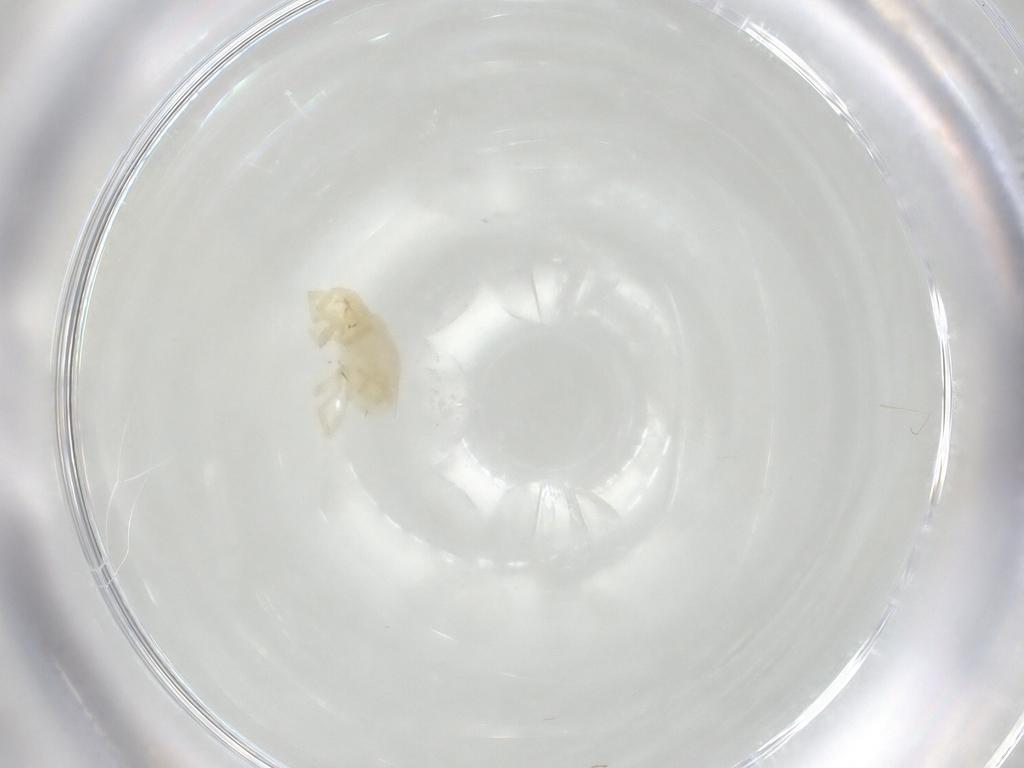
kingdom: Animalia
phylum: Arthropoda
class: Arachnida
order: Trombidiformes
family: Erythraeidae
